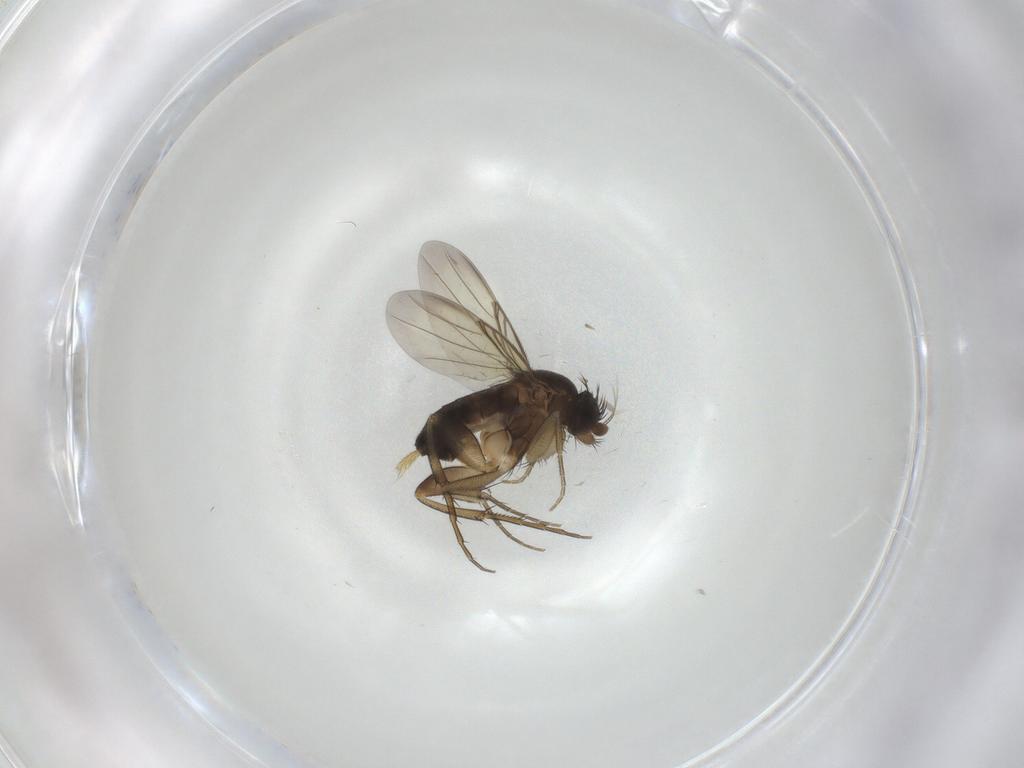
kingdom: Animalia
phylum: Arthropoda
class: Insecta
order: Diptera
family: Phoridae
